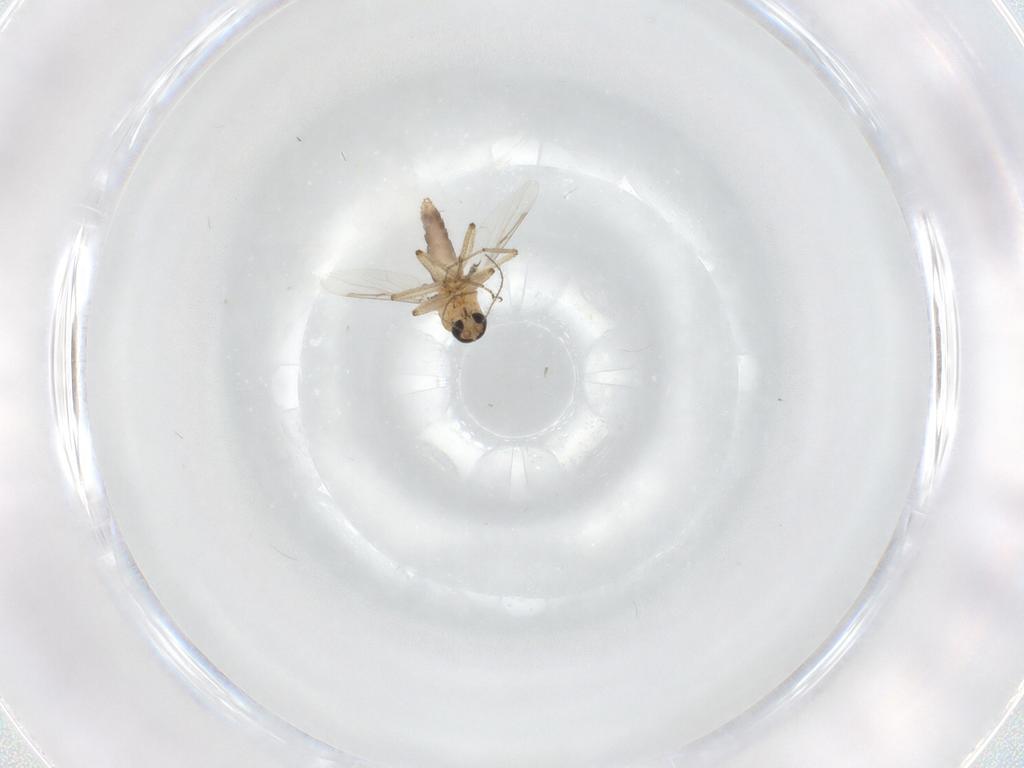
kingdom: Animalia
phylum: Arthropoda
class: Insecta
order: Diptera
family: Ceratopogonidae
